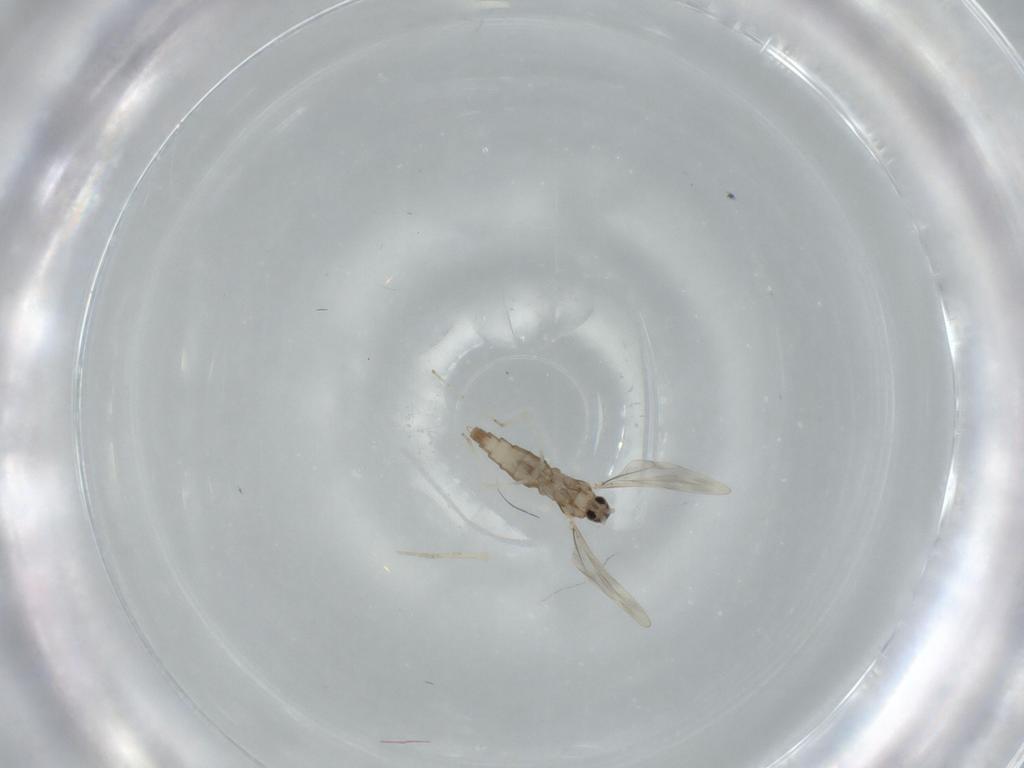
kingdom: Animalia
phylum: Arthropoda
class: Insecta
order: Diptera
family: Cecidomyiidae
